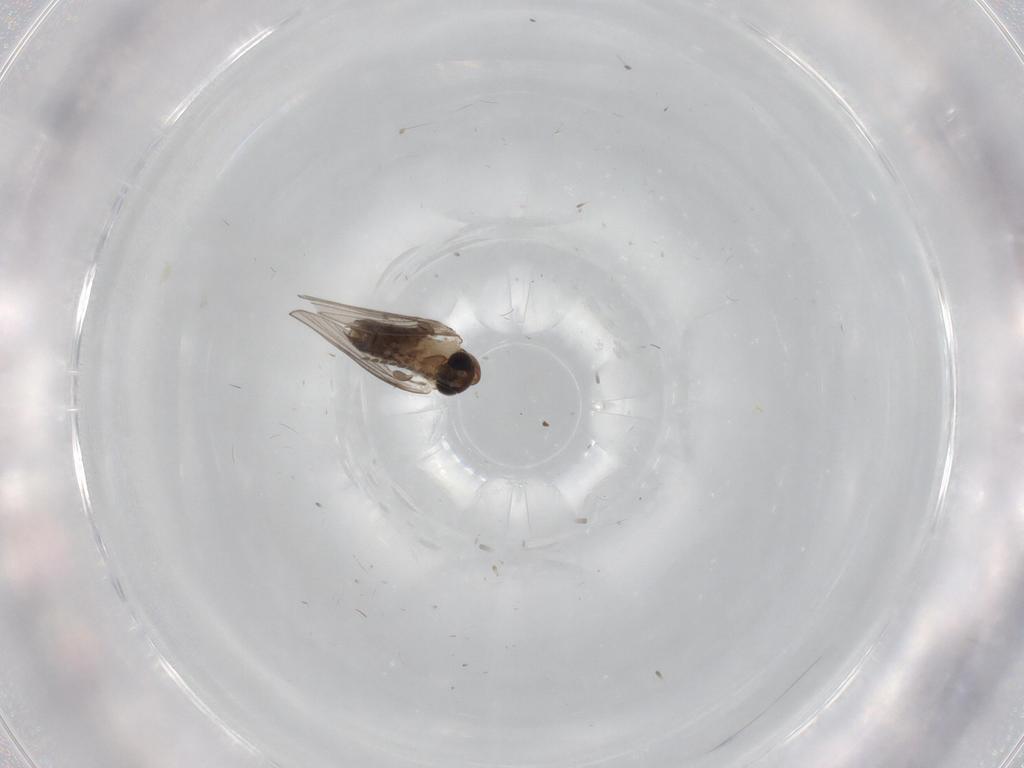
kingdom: Animalia
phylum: Arthropoda
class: Insecta
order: Diptera
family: Psychodidae
